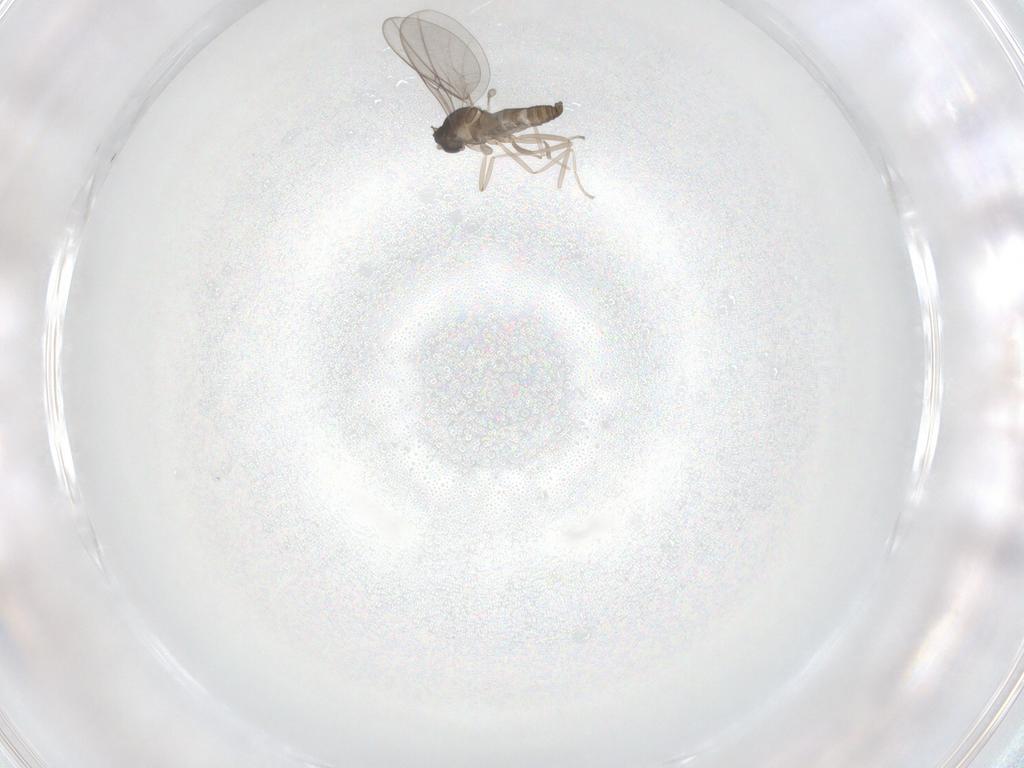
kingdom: Animalia
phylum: Arthropoda
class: Insecta
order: Diptera
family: Cecidomyiidae
